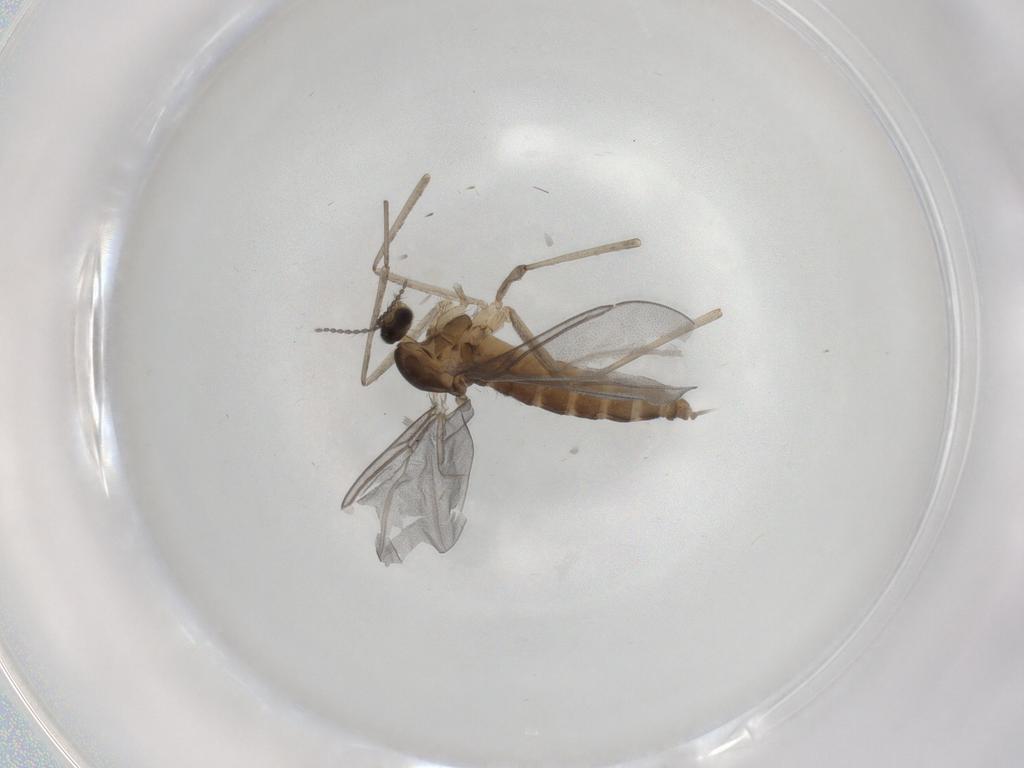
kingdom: Animalia
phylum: Arthropoda
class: Insecta
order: Diptera
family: Cecidomyiidae
